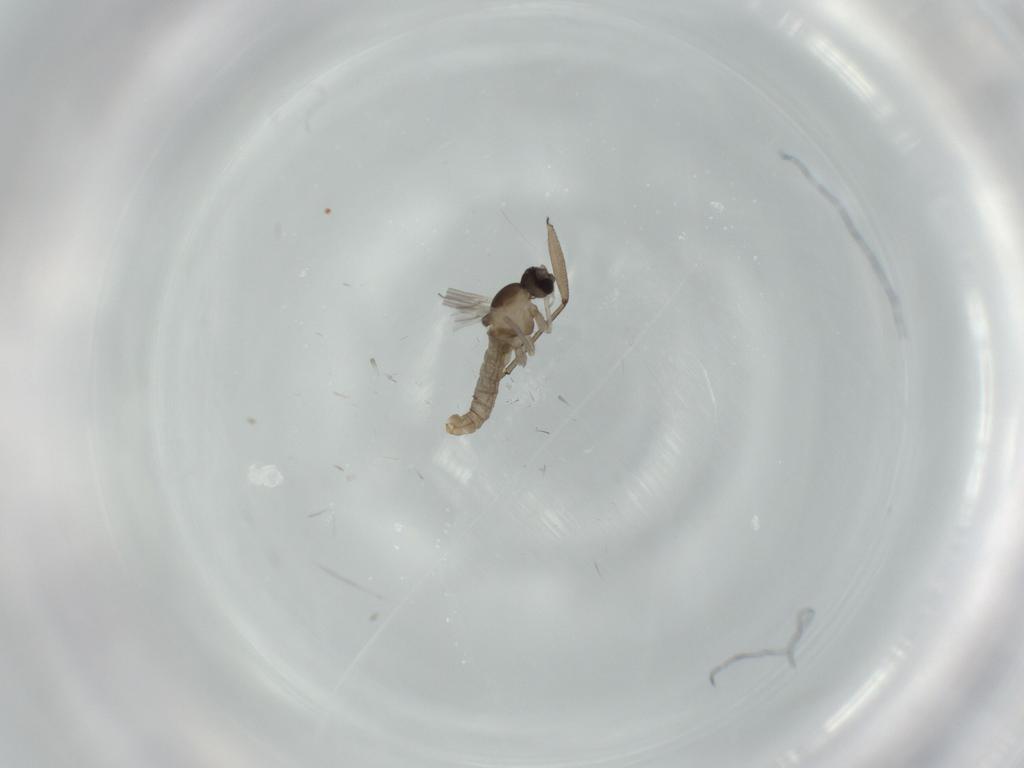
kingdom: Animalia
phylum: Arthropoda
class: Insecta
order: Diptera
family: Cecidomyiidae
